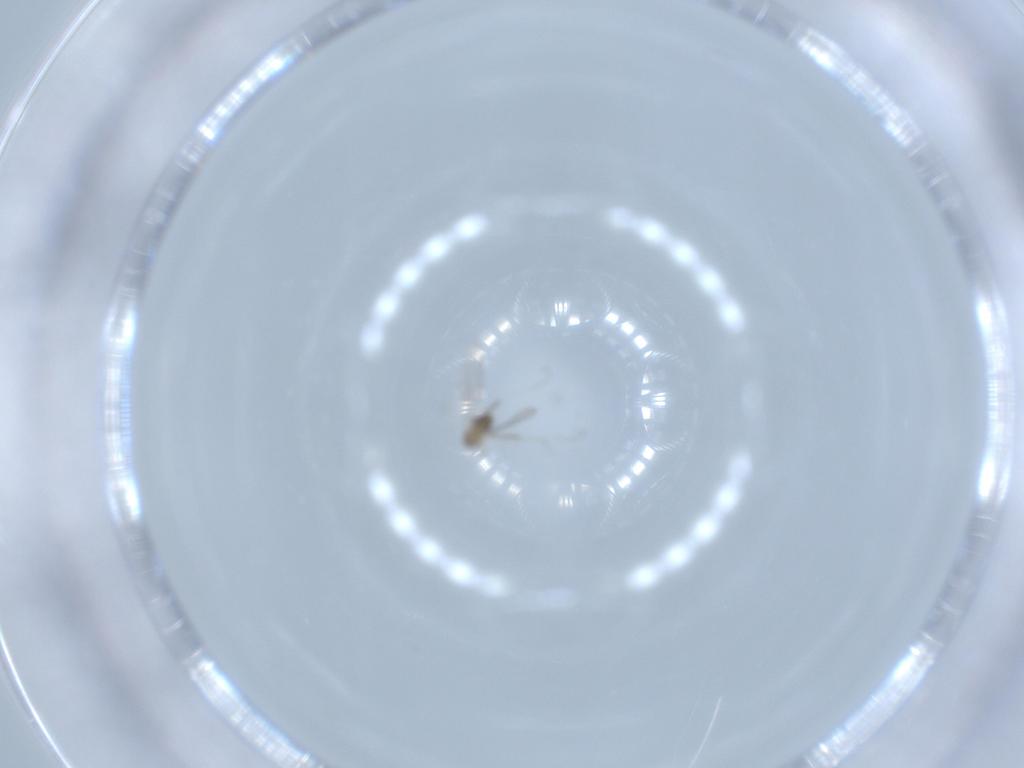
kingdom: Animalia
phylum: Arthropoda
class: Insecta
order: Diptera
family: Cecidomyiidae
